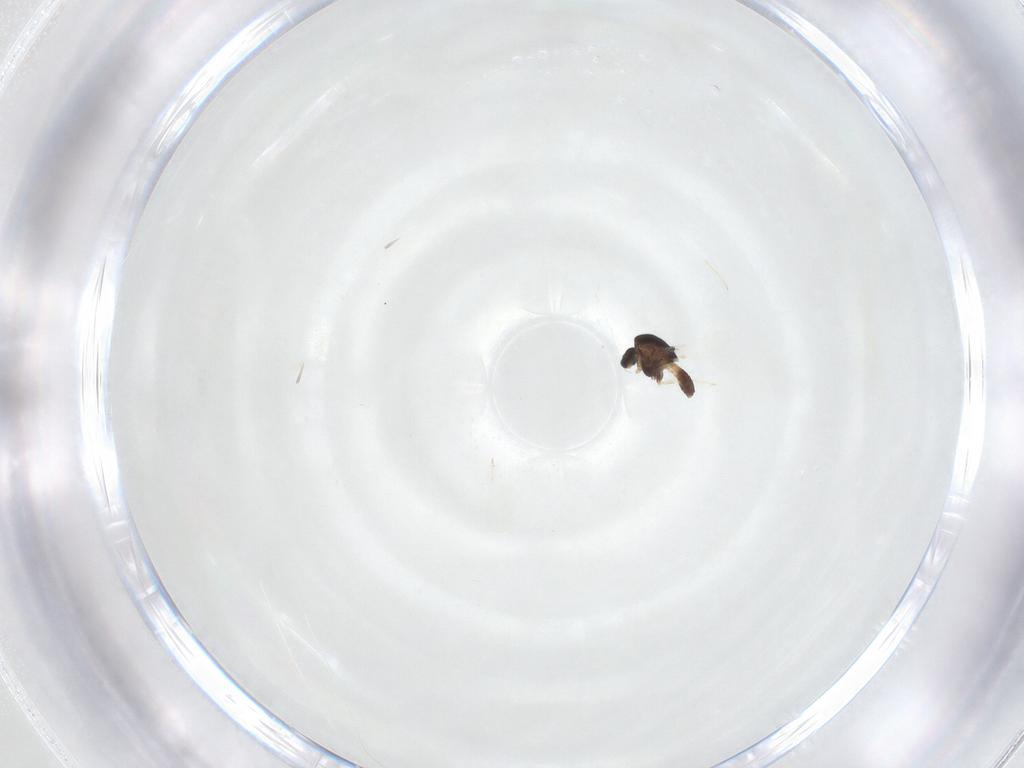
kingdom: Animalia
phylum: Arthropoda
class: Insecta
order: Diptera
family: Chironomidae
